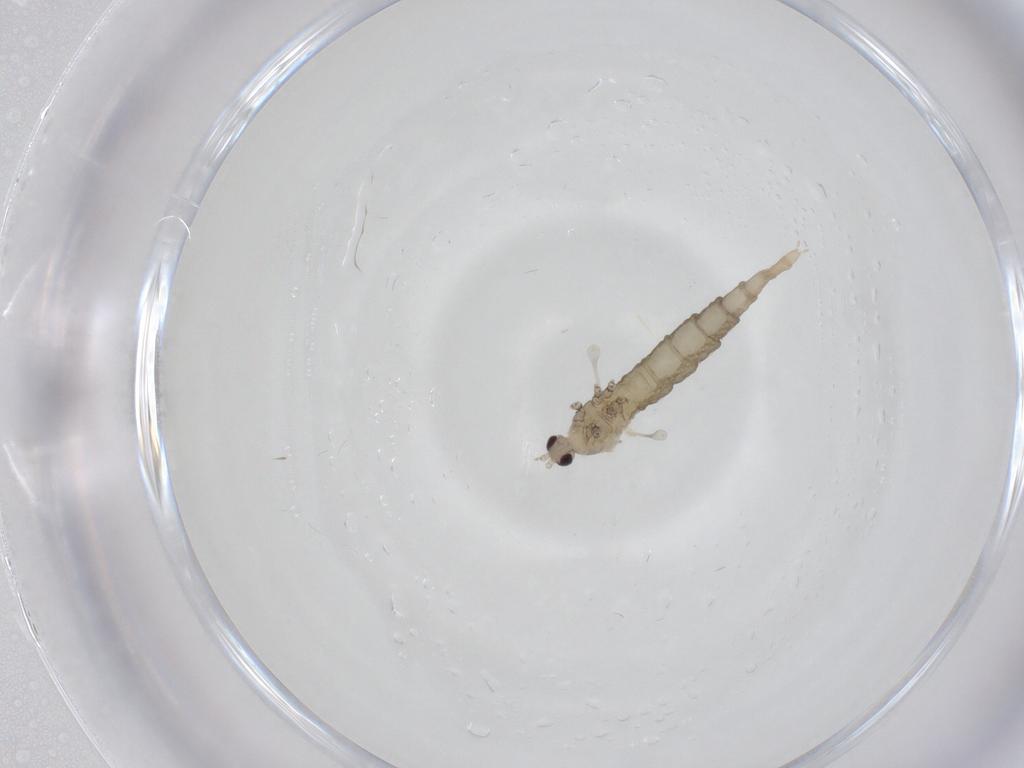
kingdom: Animalia
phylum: Arthropoda
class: Insecta
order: Diptera
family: Cecidomyiidae
